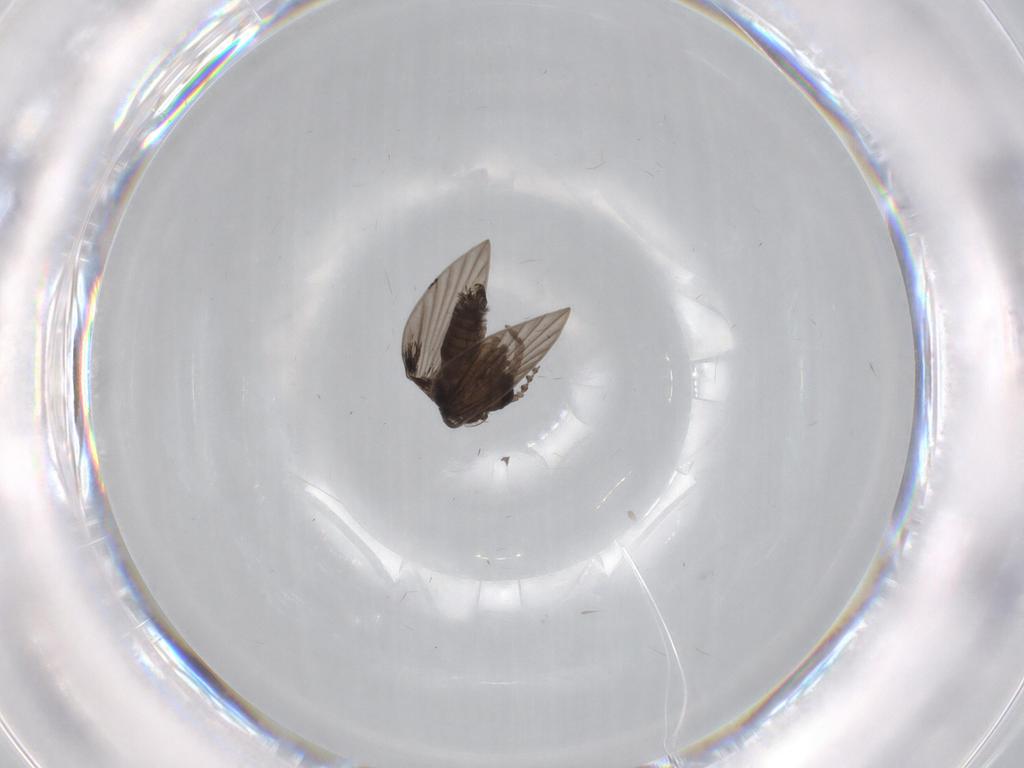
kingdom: Animalia
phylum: Arthropoda
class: Insecta
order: Diptera
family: Psychodidae
